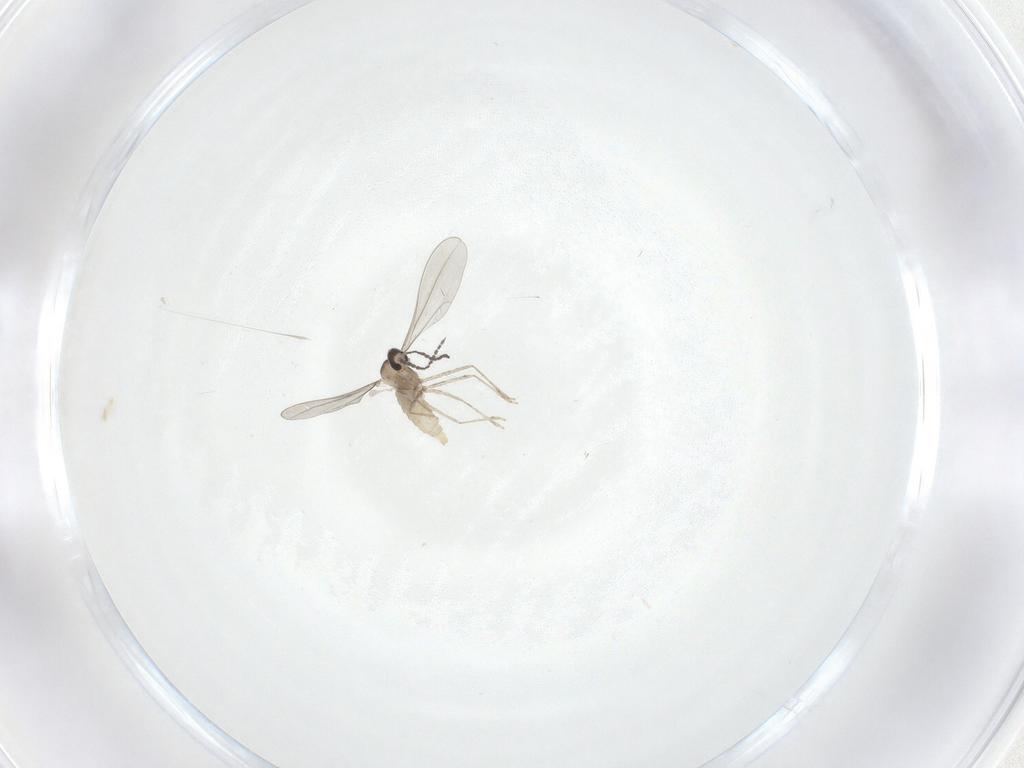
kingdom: Animalia
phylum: Arthropoda
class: Insecta
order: Diptera
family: Cecidomyiidae
